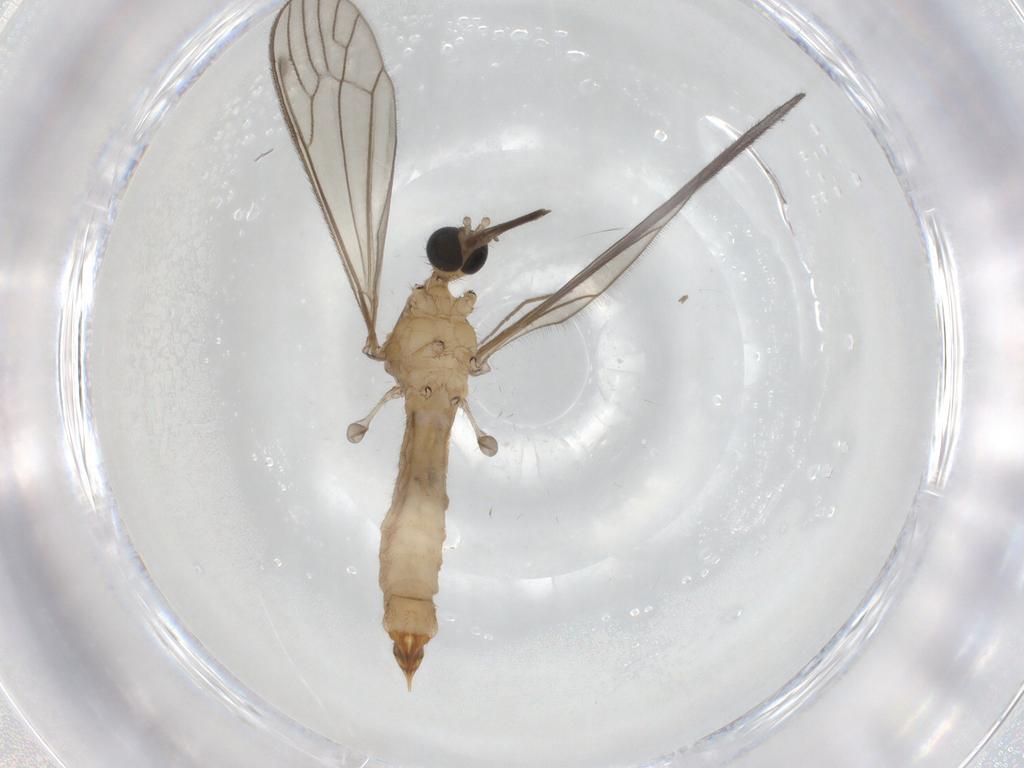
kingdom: Animalia
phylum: Arthropoda
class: Insecta
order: Diptera
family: Limoniidae
